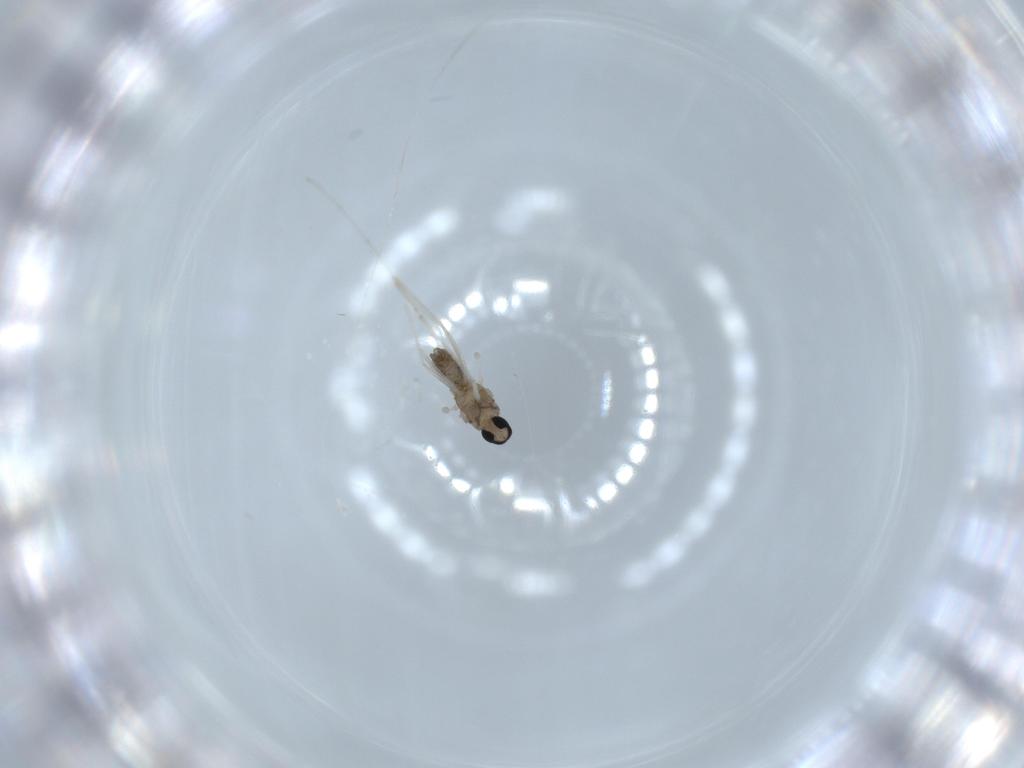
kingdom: Animalia
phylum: Arthropoda
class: Insecta
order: Diptera
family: Cecidomyiidae
